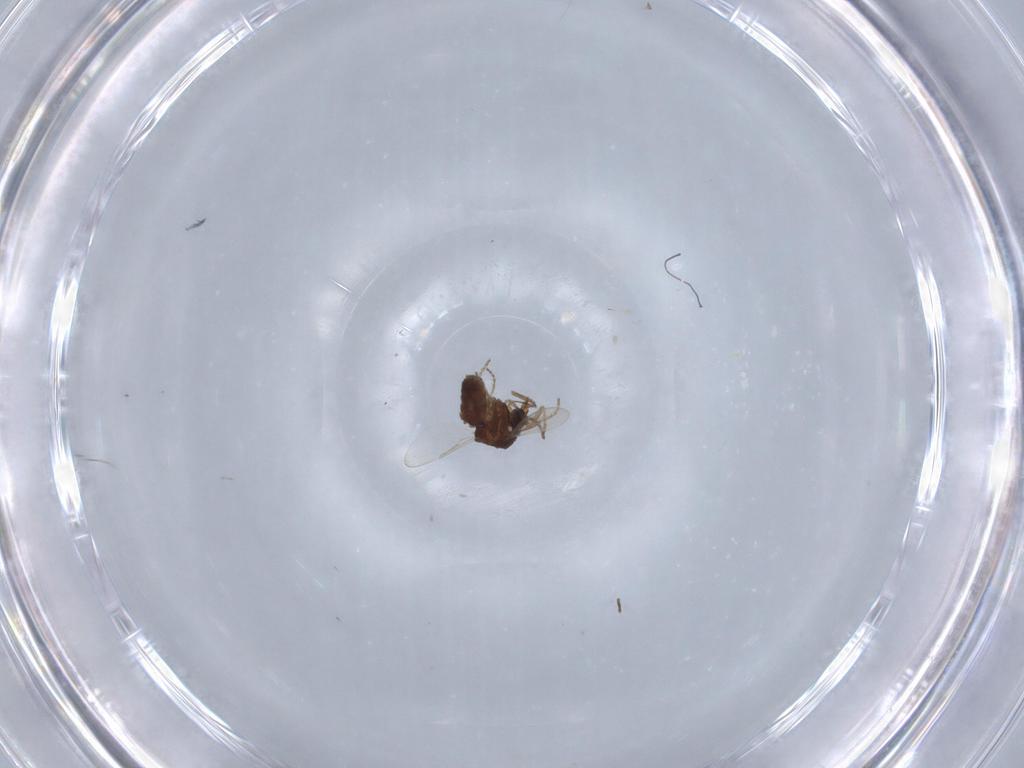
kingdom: Animalia
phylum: Arthropoda
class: Insecta
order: Diptera
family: Ceratopogonidae
